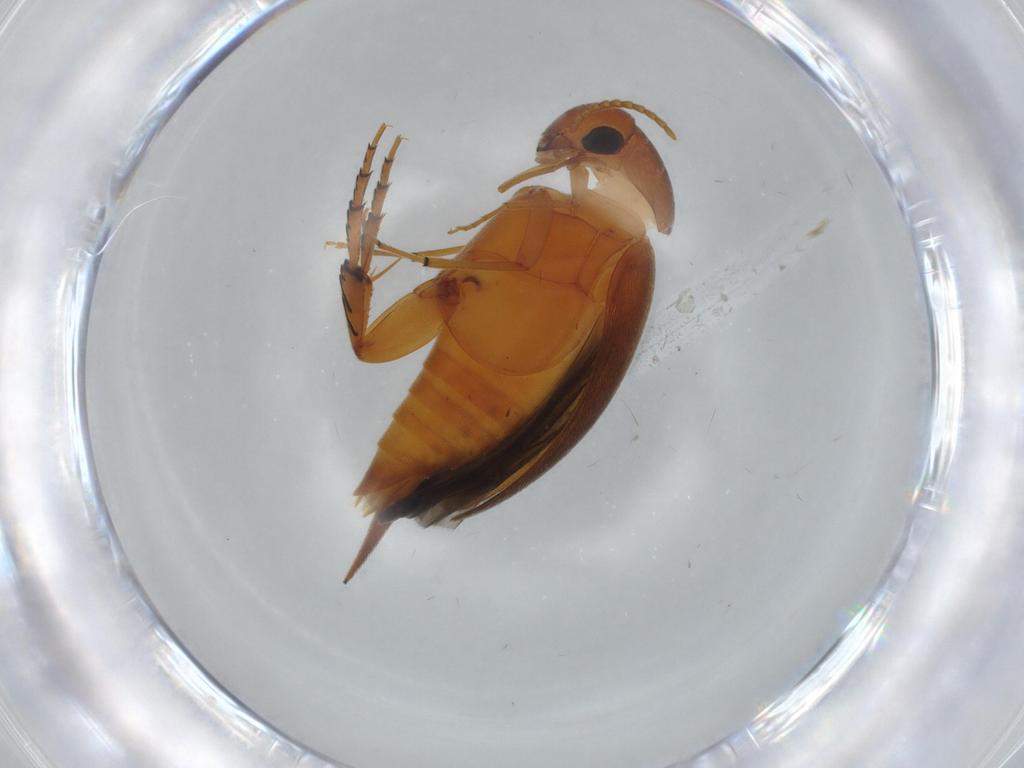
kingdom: Animalia
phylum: Arthropoda
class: Insecta
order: Coleoptera
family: Mordellidae
